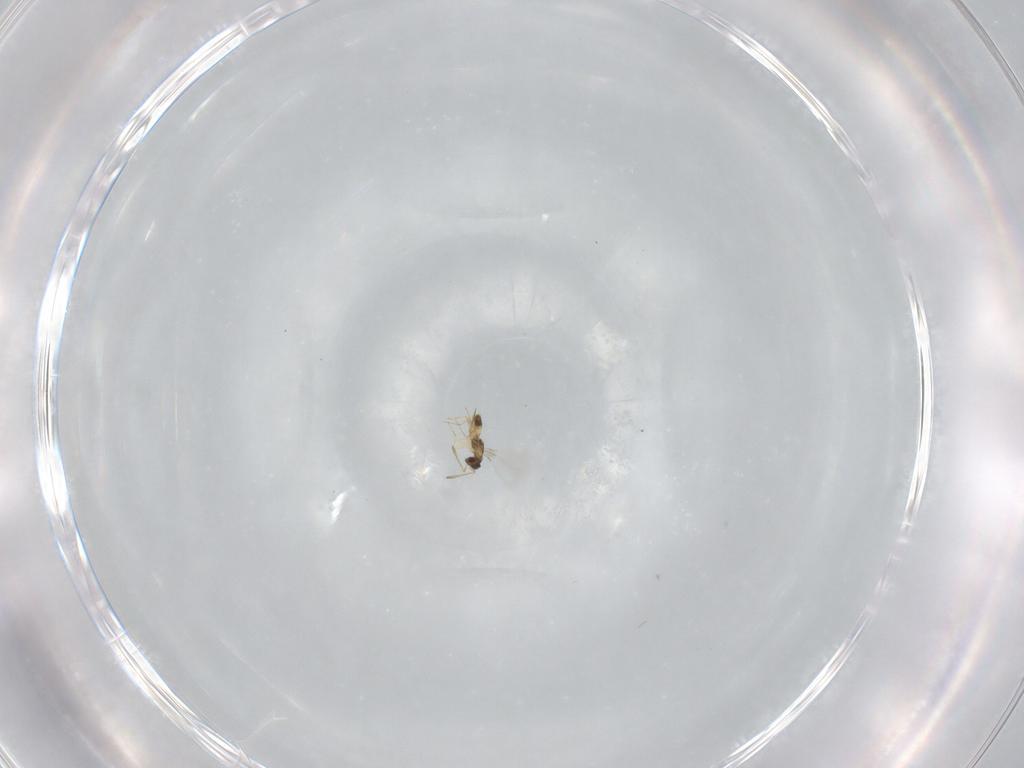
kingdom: Animalia
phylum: Arthropoda
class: Insecta
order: Hymenoptera
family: Mymaridae
